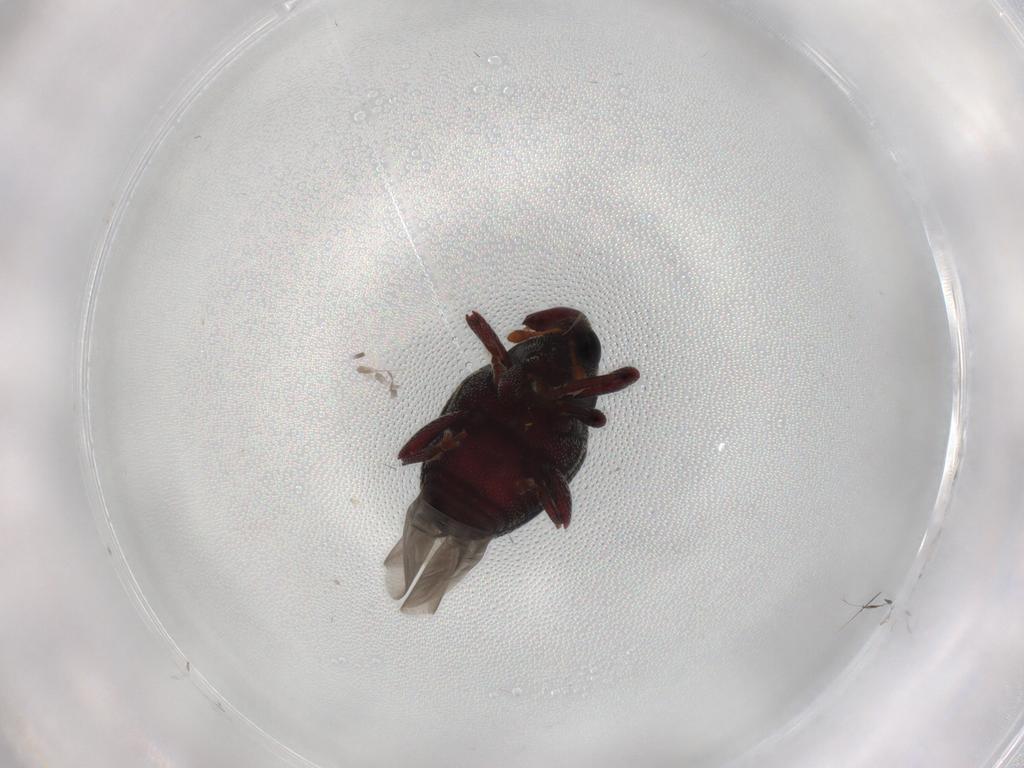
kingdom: Animalia
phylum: Arthropoda
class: Insecta
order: Coleoptera
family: Curculionidae
